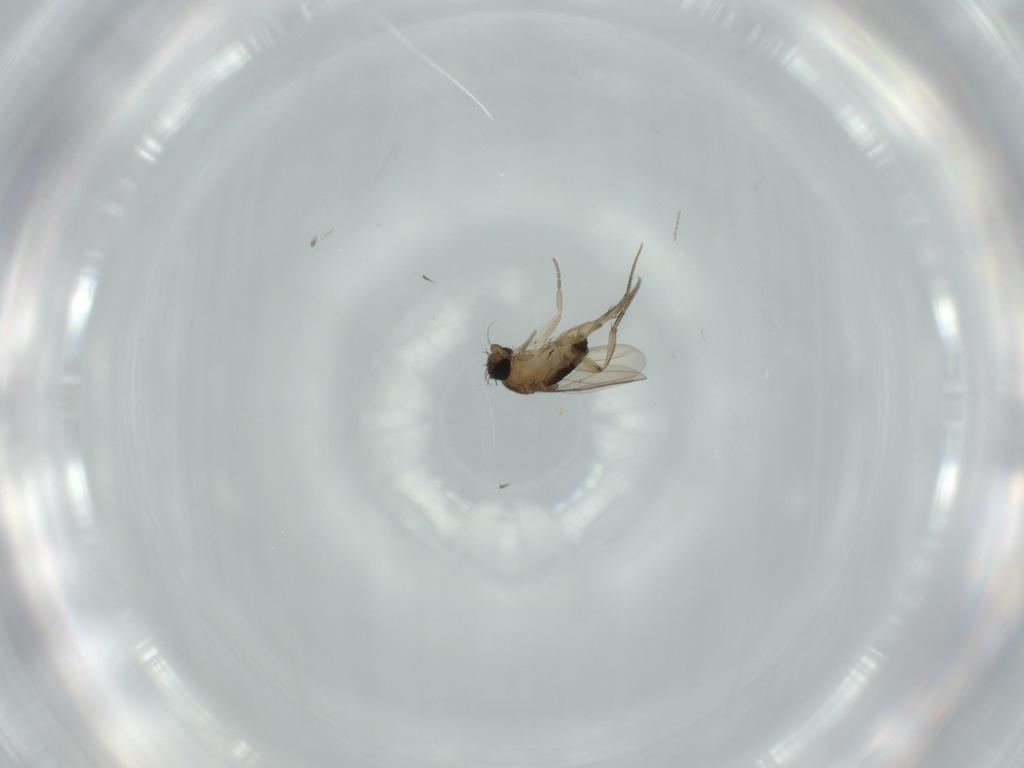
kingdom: Animalia
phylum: Arthropoda
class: Insecta
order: Diptera
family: Phoridae
